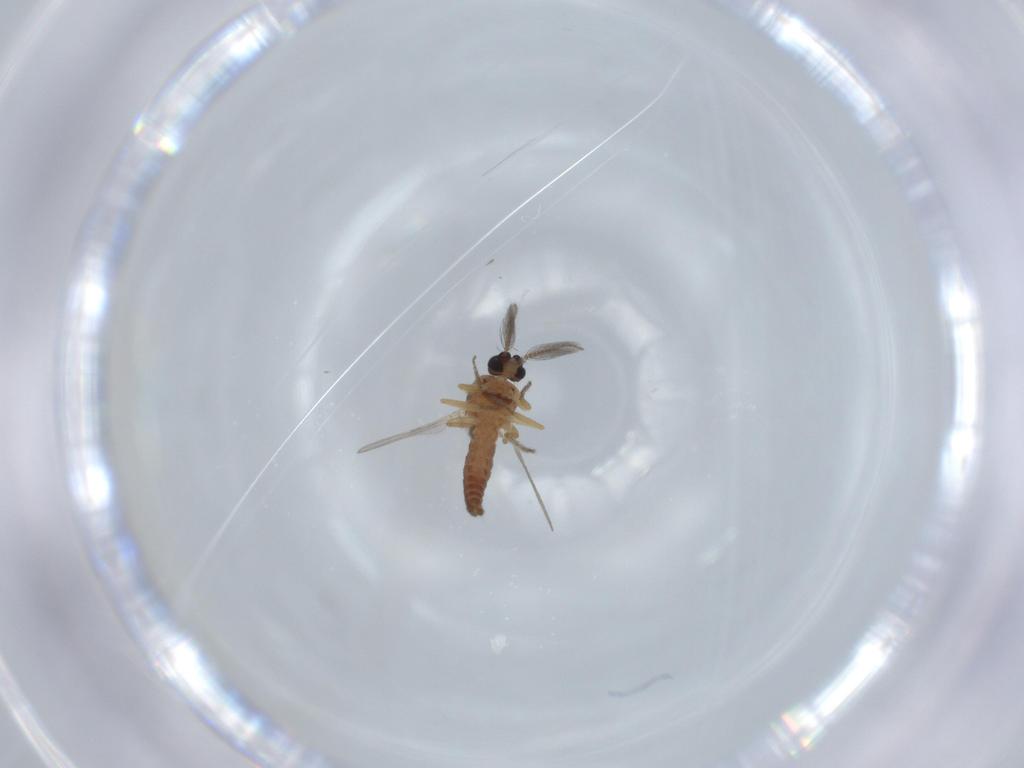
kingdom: Animalia
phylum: Arthropoda
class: Insecta
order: Diptera
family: Ceratopogonidae
